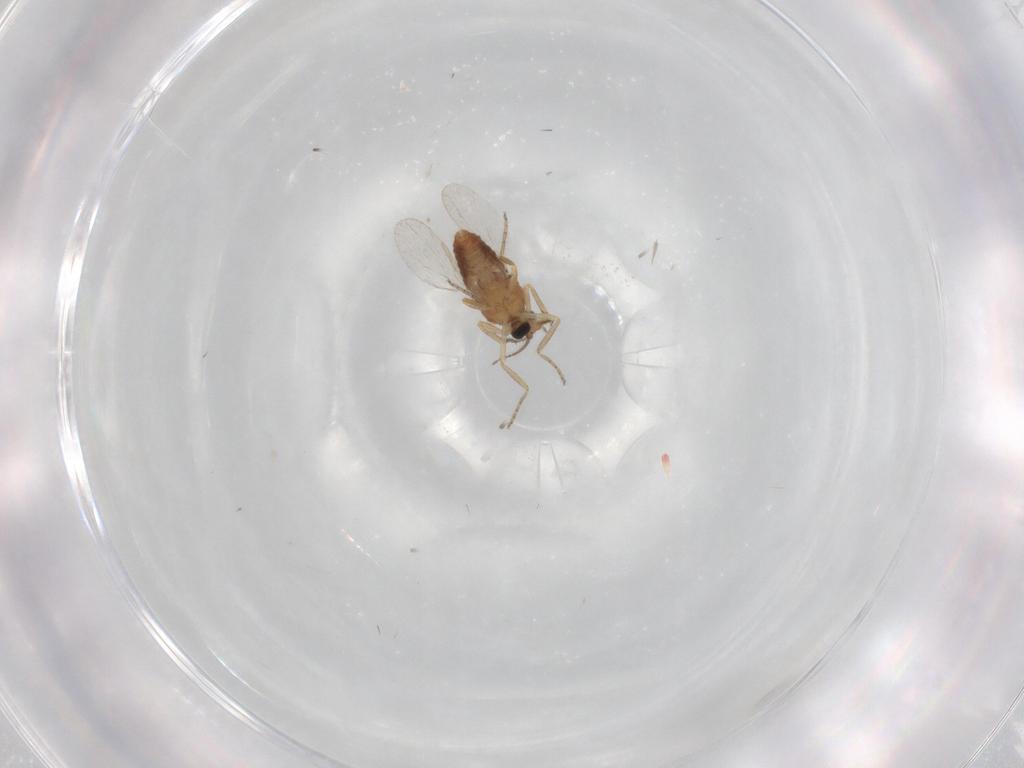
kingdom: Animalia
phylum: Arthropoda
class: Insecta
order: Diptera
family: Ceratopogonidae
